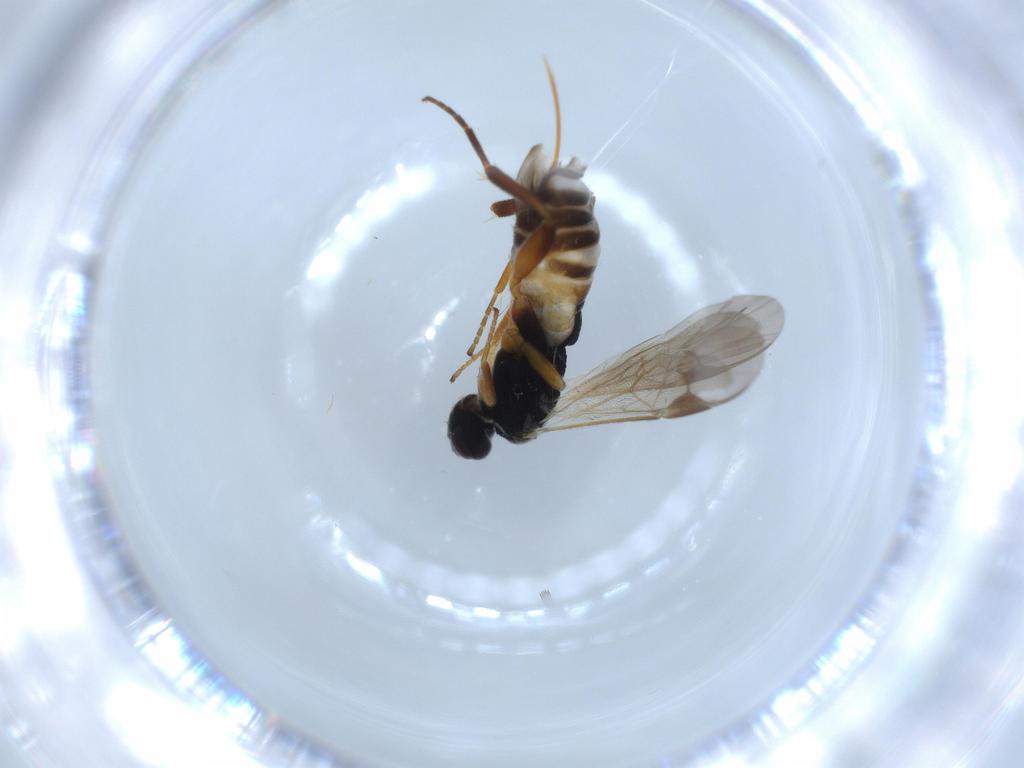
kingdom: Animalia
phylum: Arthropoda
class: Insecta
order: Hymenoptera
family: Braconidae
